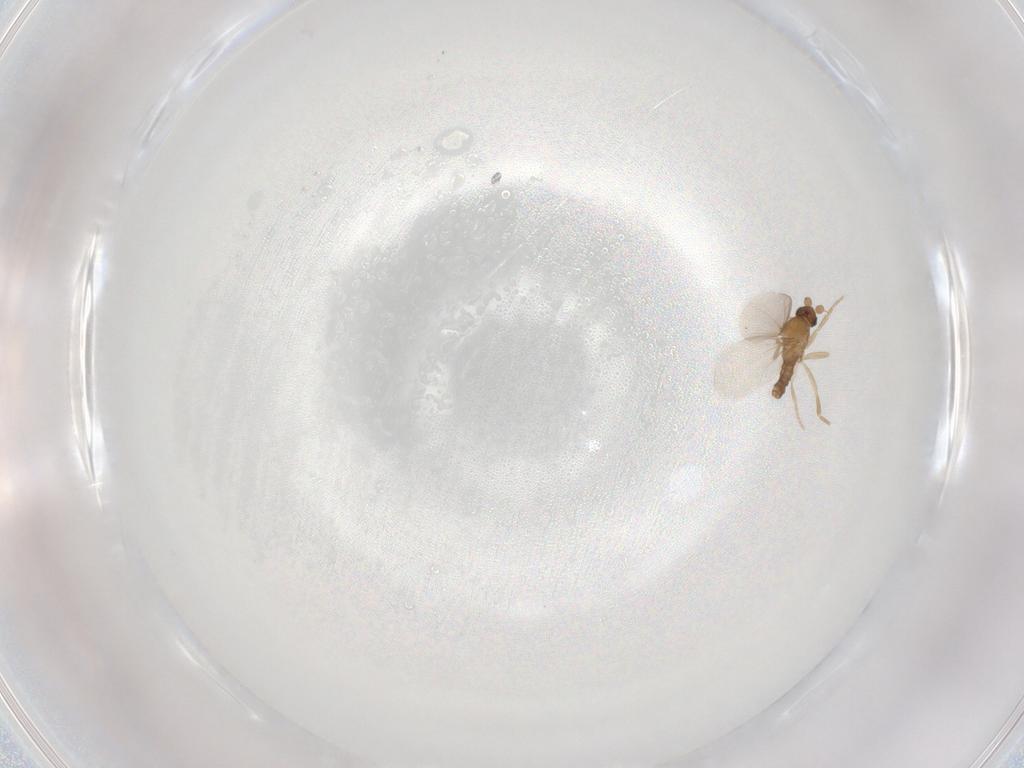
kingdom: Animalia
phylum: Arthropoda
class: Insecta
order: Diptera
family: Phoridae
